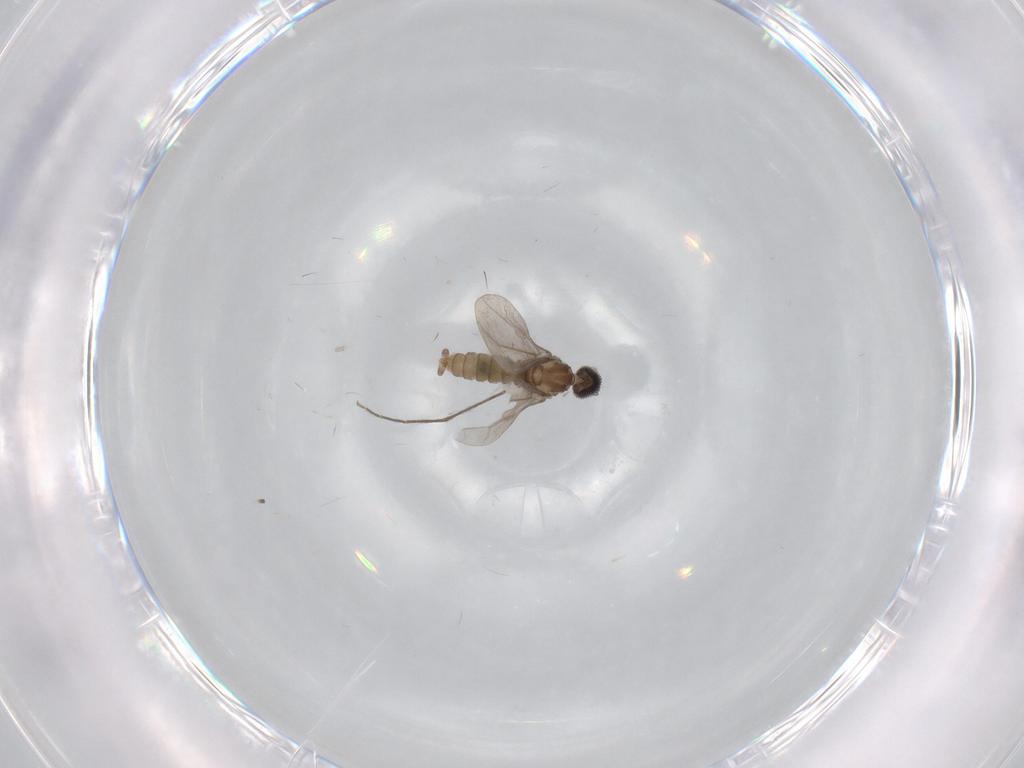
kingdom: Animalia
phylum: Arthropoda
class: Insecta
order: Diptera
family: Chironomidae
